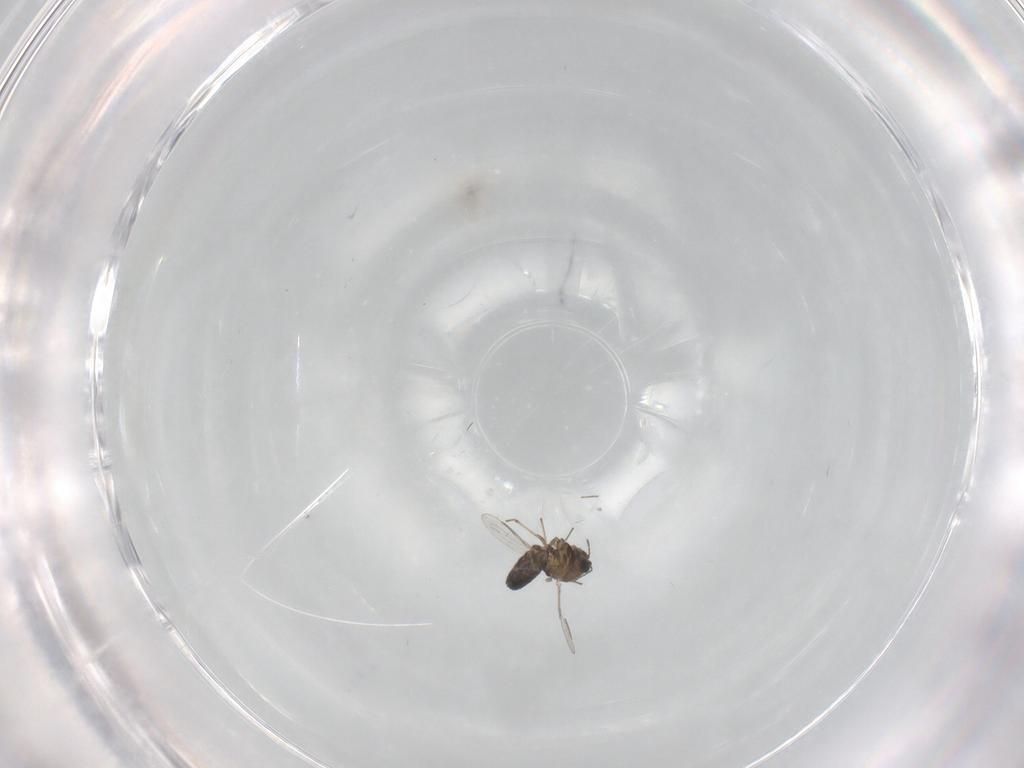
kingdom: Animalia
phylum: Arthropoda
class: Insecta
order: Diptera
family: Chironomidae
